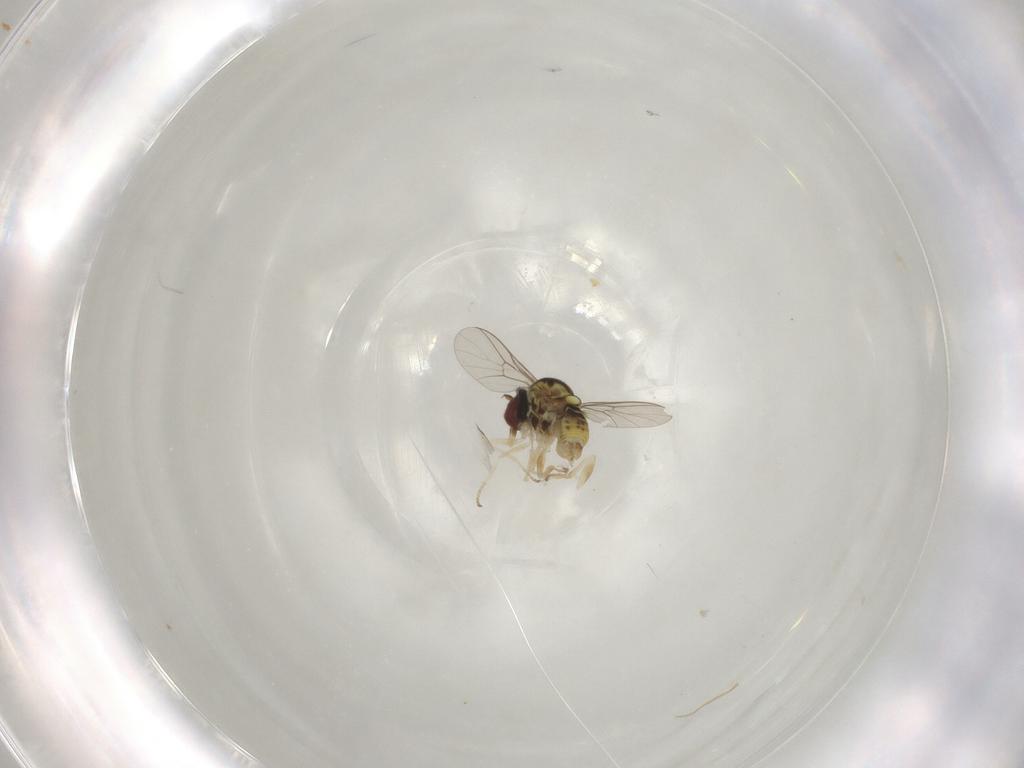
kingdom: Animalia
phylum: Arthropoda
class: Insecta
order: Diptera
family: Bombyliidae
